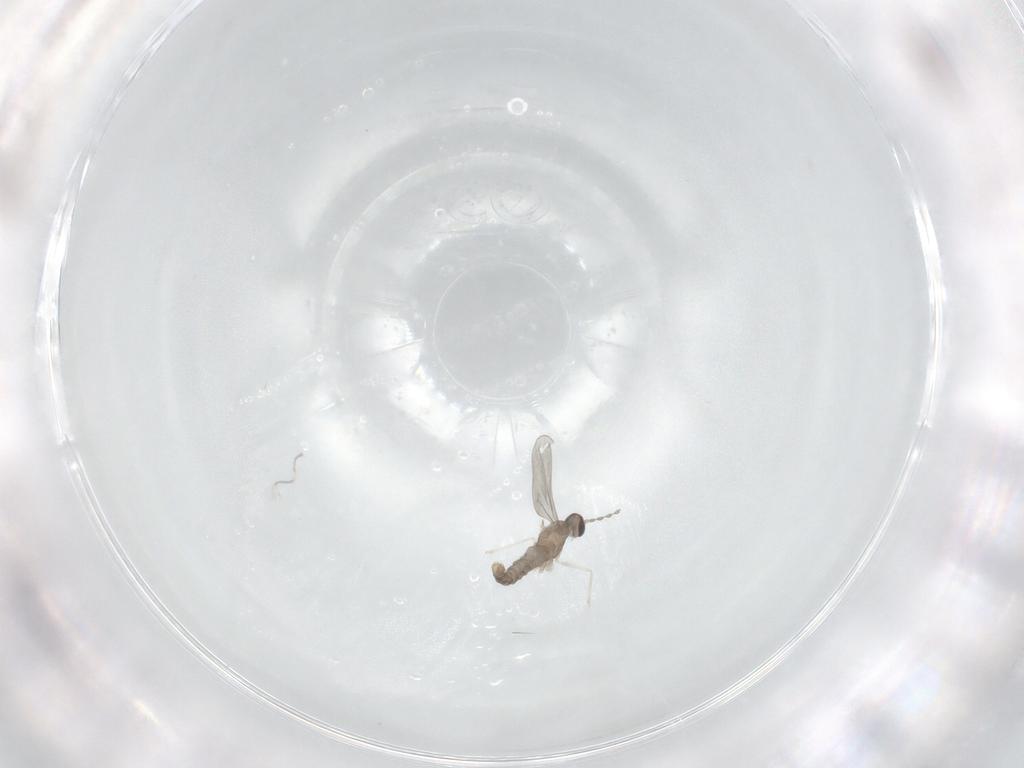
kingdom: Animalia
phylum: Arthropoda
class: Insecta
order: Diptera
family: Cecidomyiidae
